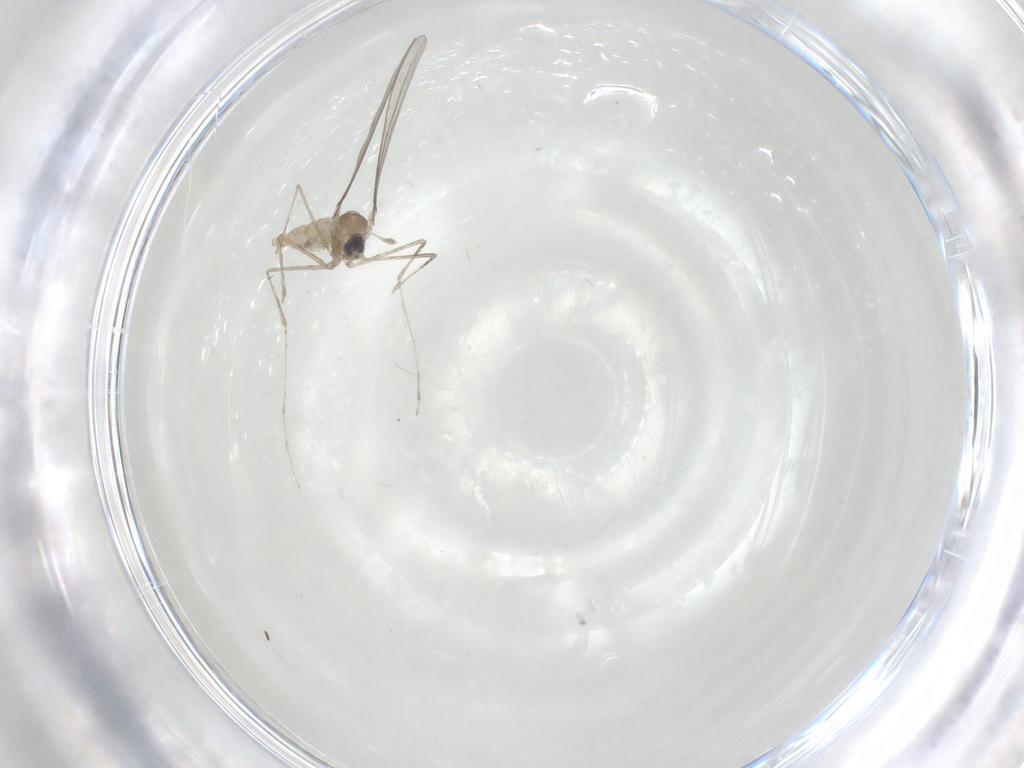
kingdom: Animalia
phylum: Arthropoda
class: Insecta
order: Diptera
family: Cecidomyiidae
